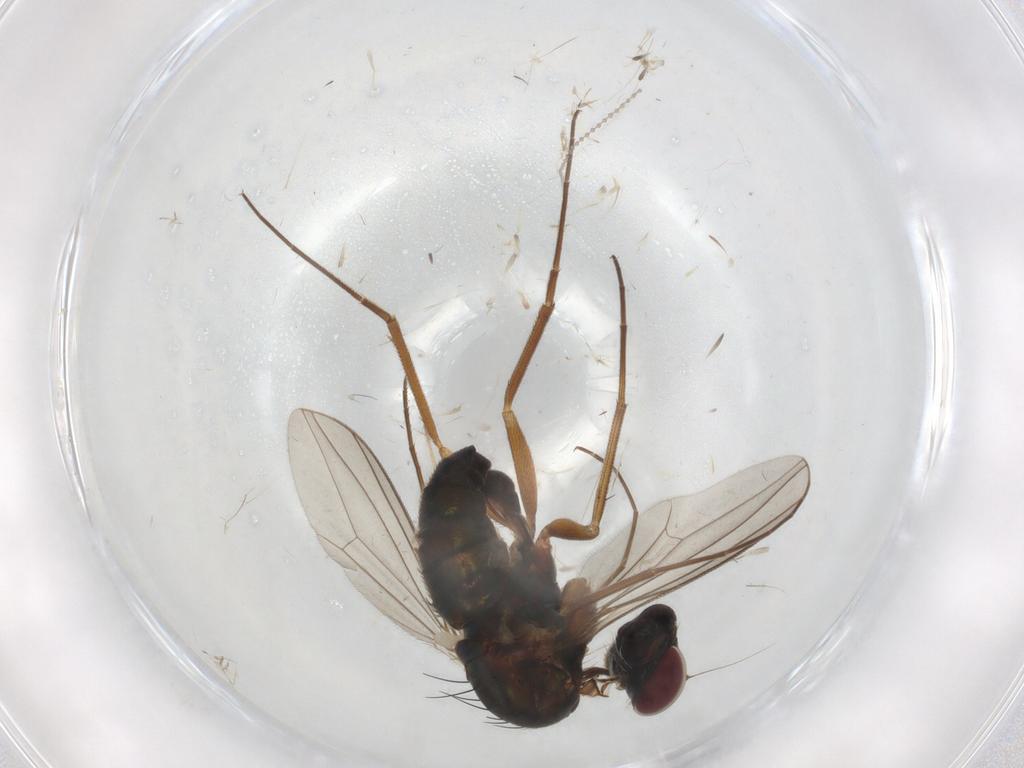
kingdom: Animalia
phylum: Arthropoda
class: Insecta
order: Diptera
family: Dolichopodidae
